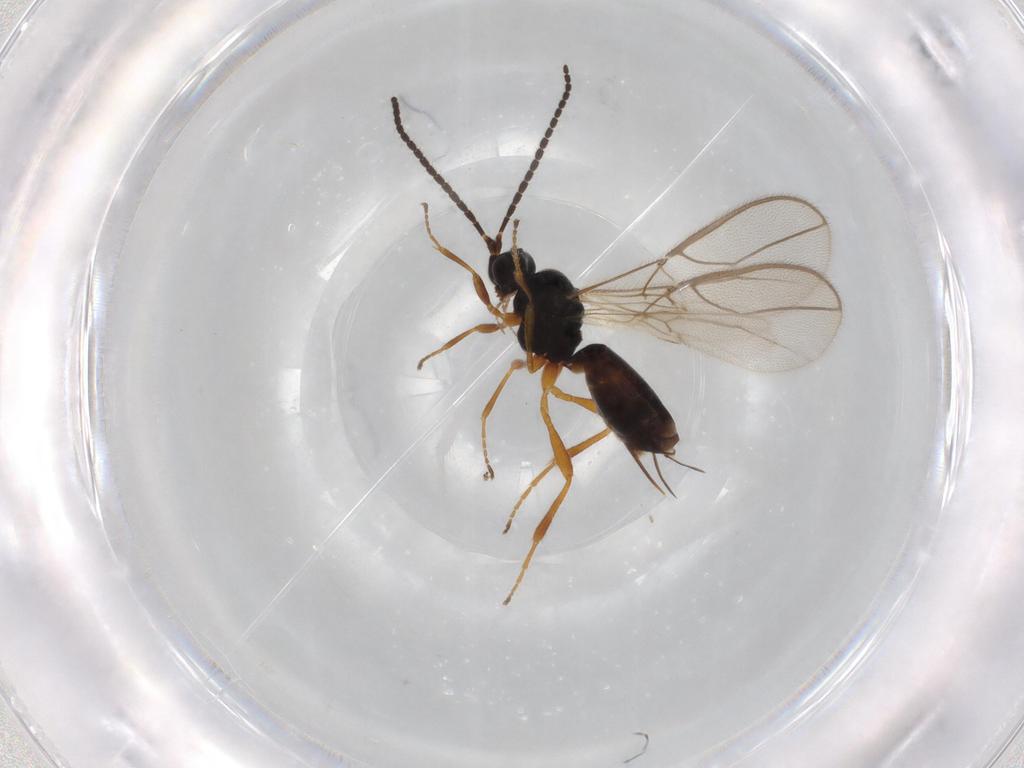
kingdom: Animalia
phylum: Arthropoda
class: Insecta
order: Hymenoptera
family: Braconidae
